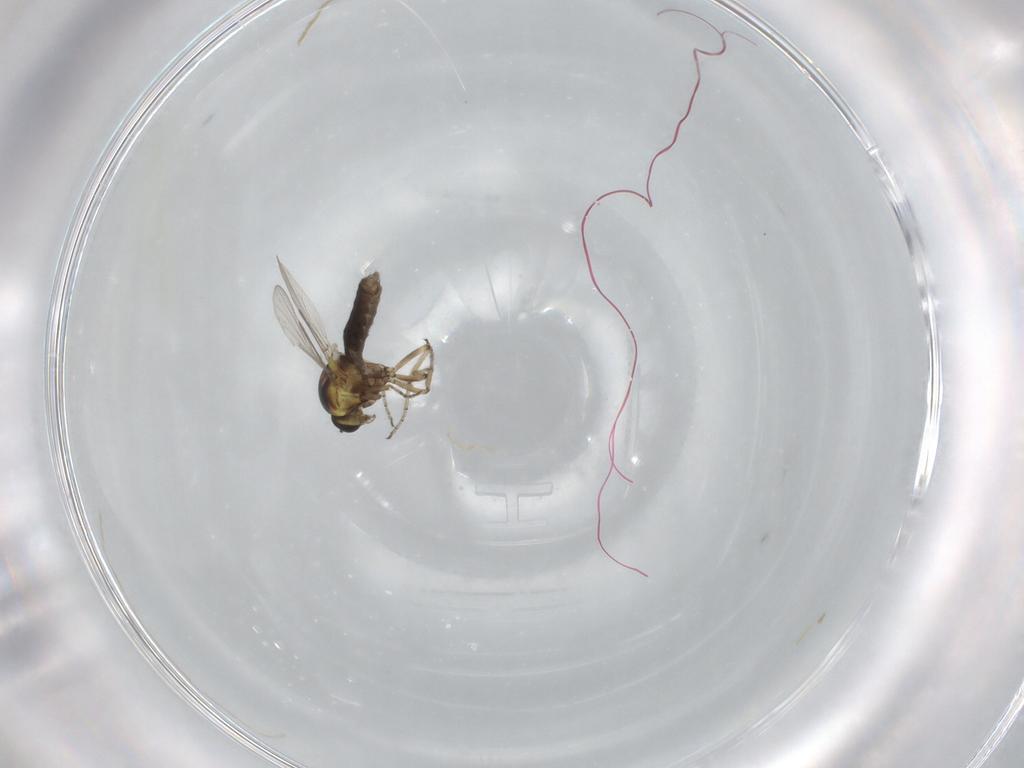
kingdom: Animalia
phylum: Arthropoda
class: Insecta
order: Diptera
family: Ceratopogonidae
